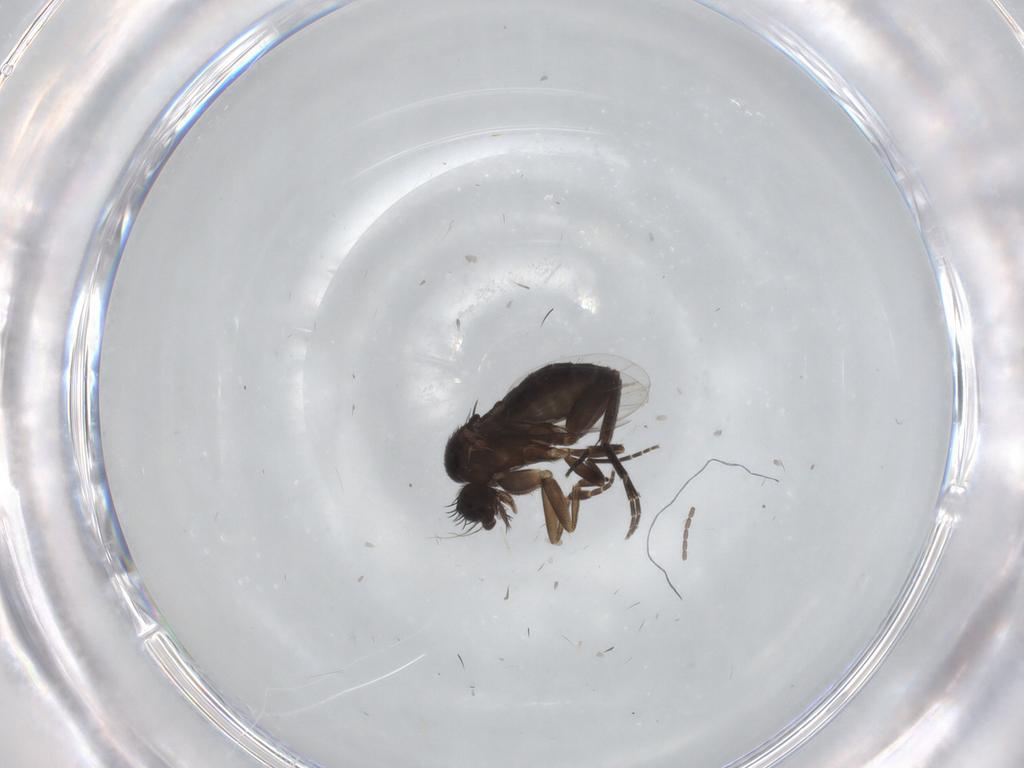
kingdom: Animalia
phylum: Arthropoda
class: Insecta
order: Diptera
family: Phoridae
